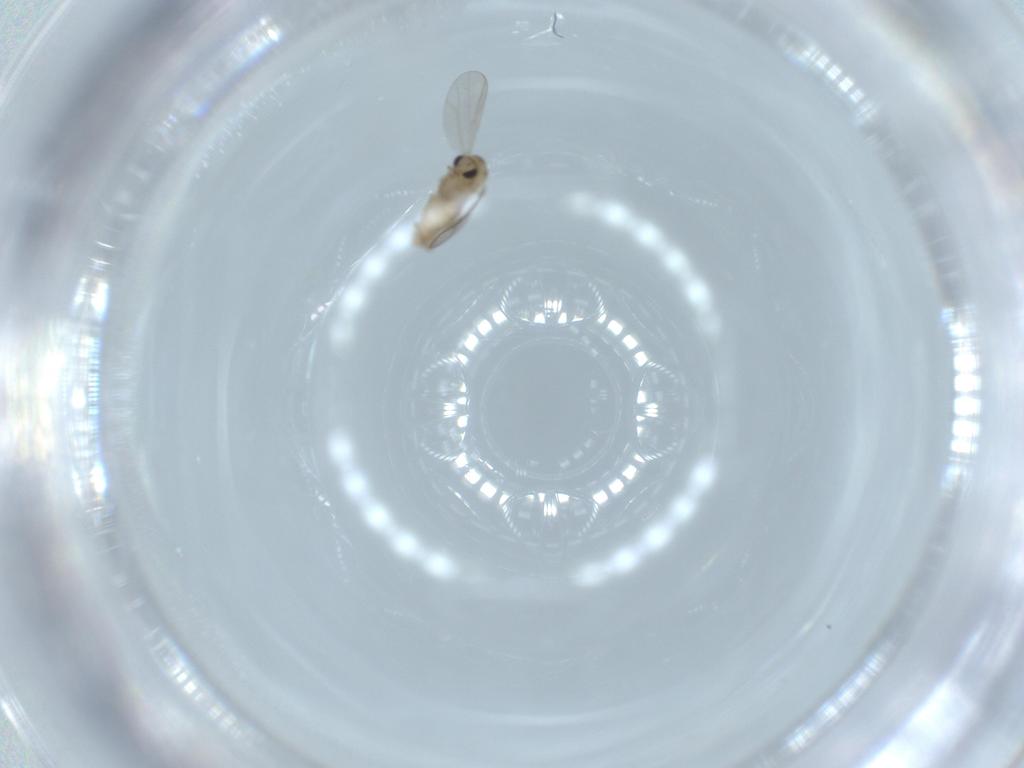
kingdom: Animalia
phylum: Arthropoda
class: Insecta
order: Diptera
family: Chironomidae
